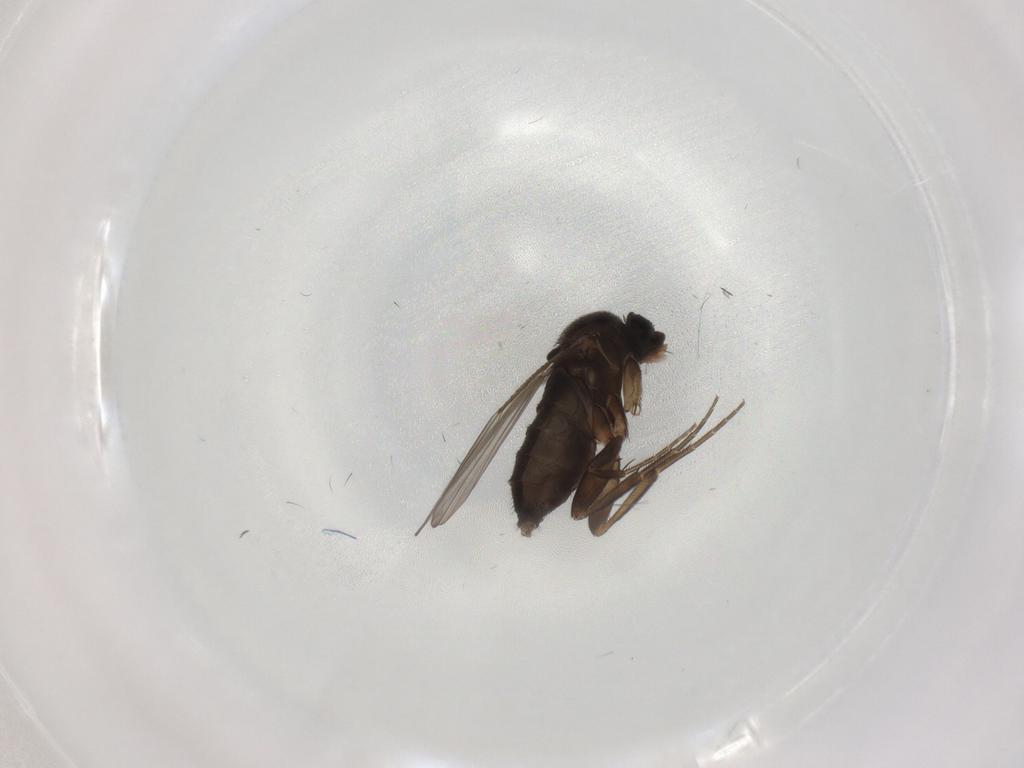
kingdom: Animalia
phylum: Arthropoda
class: Insecta
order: Diptera
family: Phoridae
